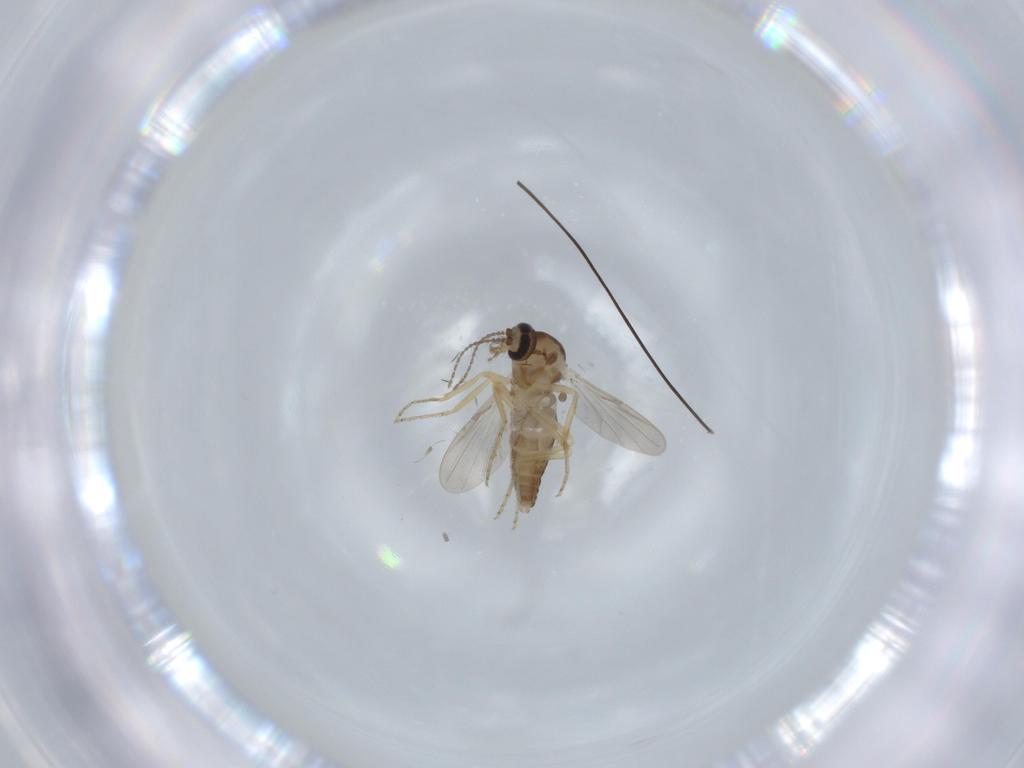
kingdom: Animalia
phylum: Arthropoda
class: Insecta
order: Diptera
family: Ceratopogonidae
